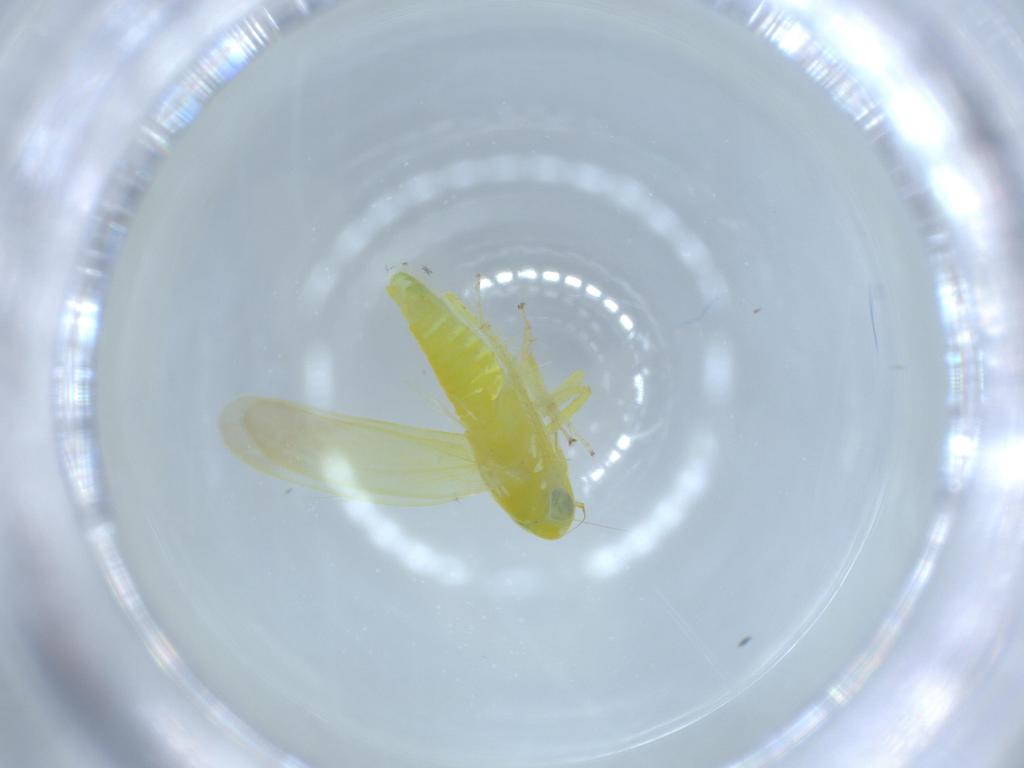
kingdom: Animalia
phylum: Arthropoda
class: Insecta
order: Hemiptera
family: Cicadellidae
